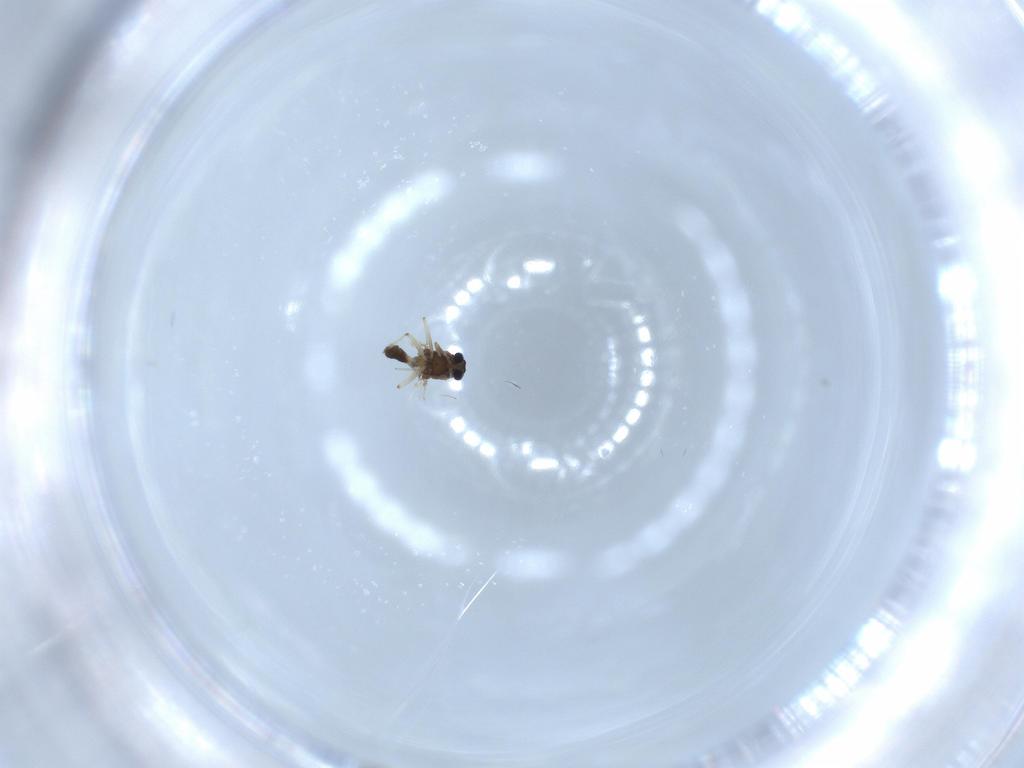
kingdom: Animalia
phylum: Arthropoda
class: Insecta
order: Diptera
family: Chironomidae
